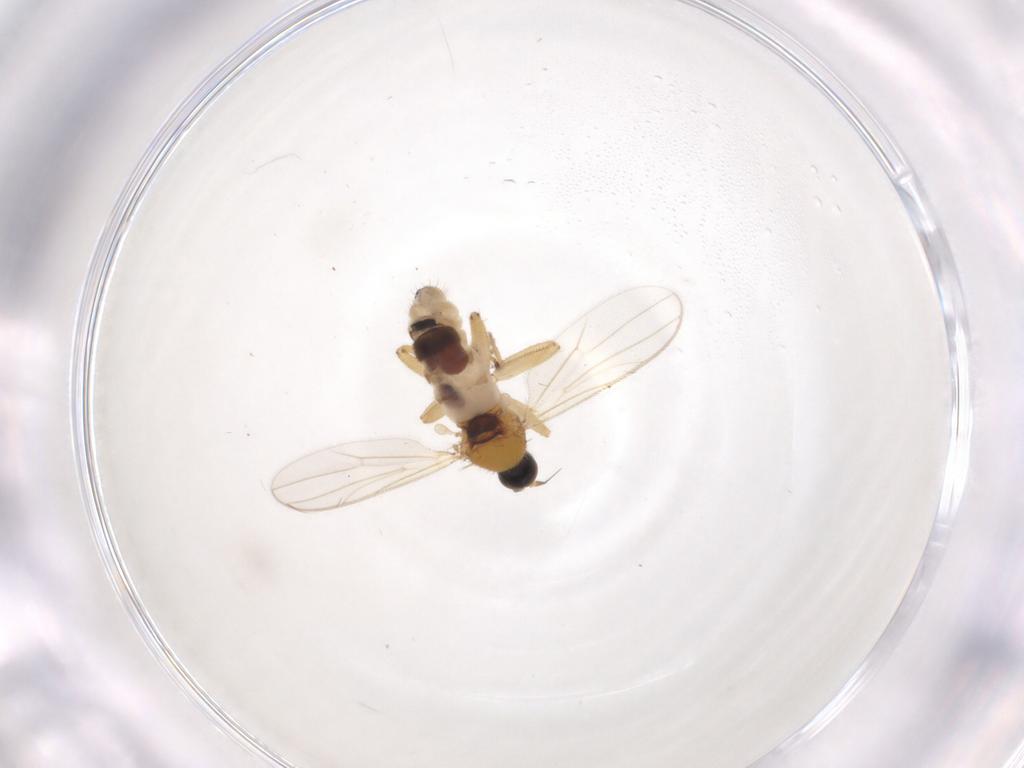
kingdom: Animalia
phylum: Arthropoda
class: Insecta
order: Diptera
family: Hybotidae
